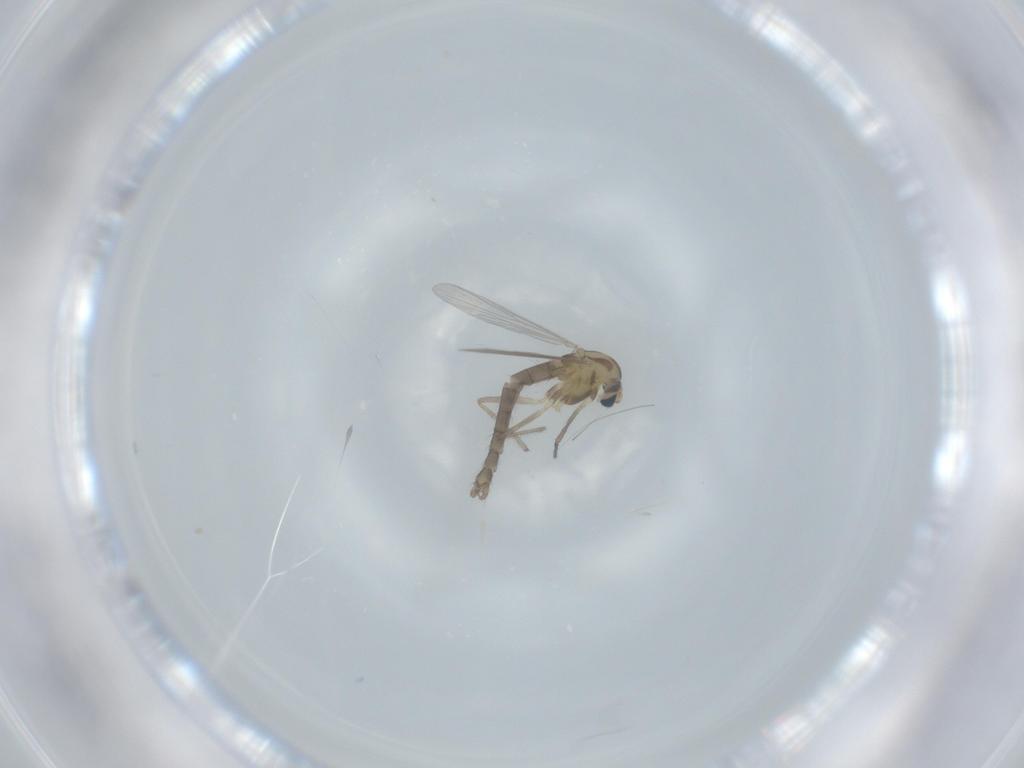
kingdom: Animalia
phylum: Arthropoda
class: Insecta
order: Diptera
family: Chironomidae
